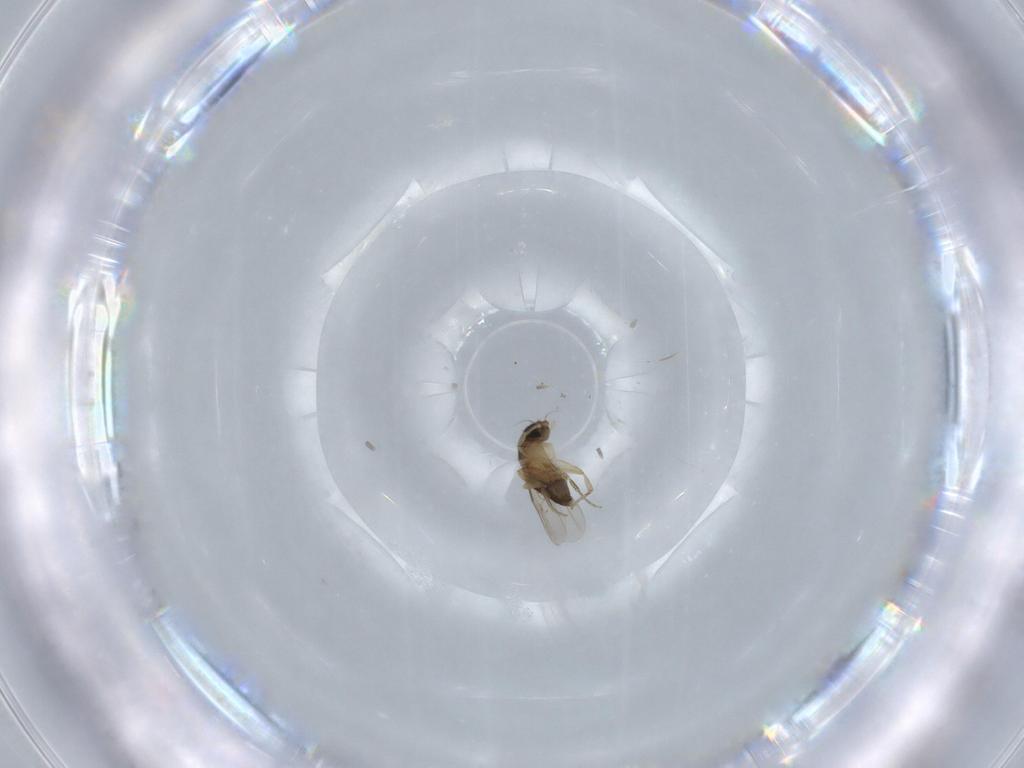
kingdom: Animalia
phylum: Arthropoda
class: Insecta
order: Diptera
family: Phoridae
